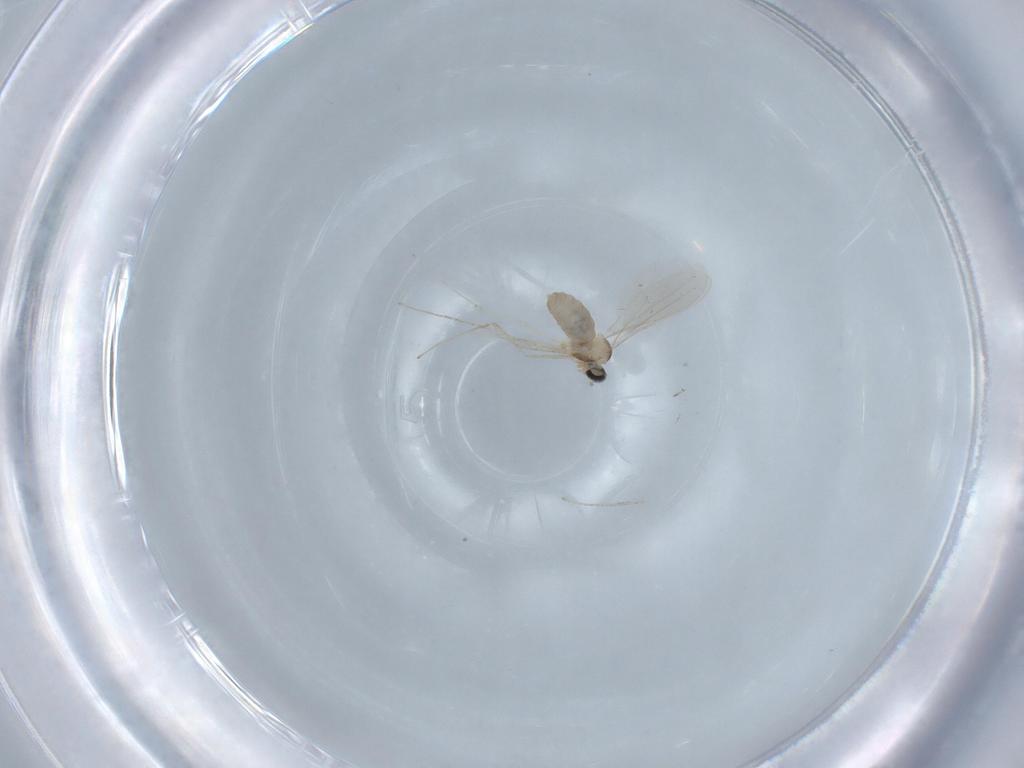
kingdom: Animalia
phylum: Arthropoda
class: Insecta
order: Diptera
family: Cecidomyiidae
